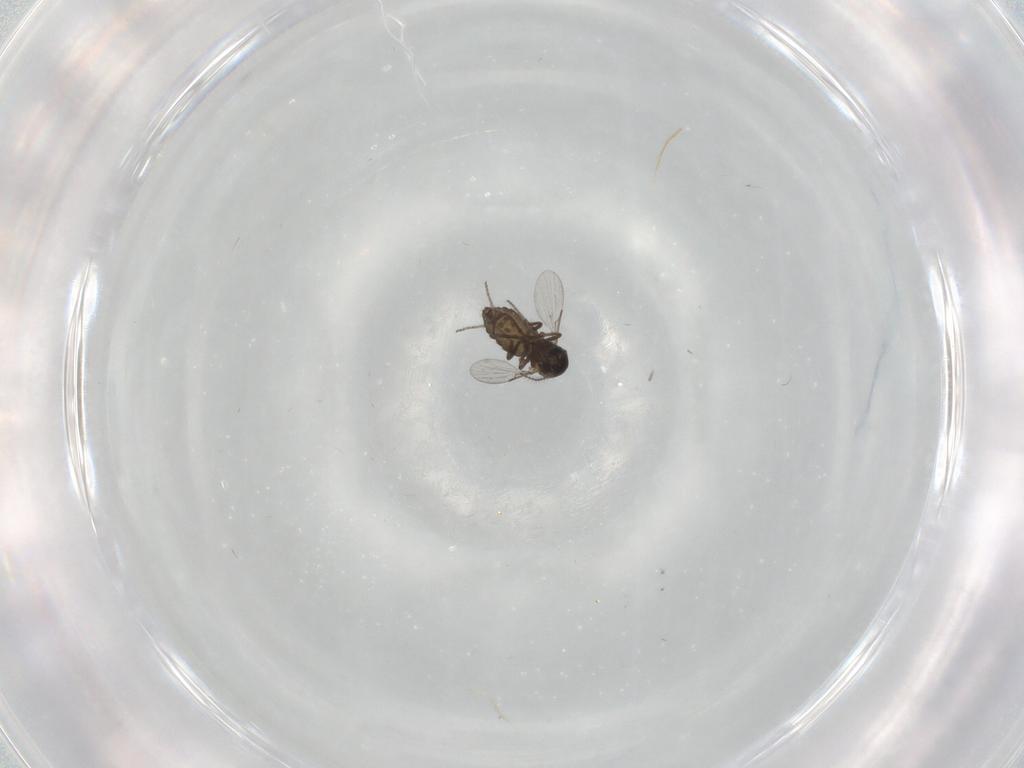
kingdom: Animalia
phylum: Arthropoda
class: Insecta
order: Diptera
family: Ceratopogonidae
